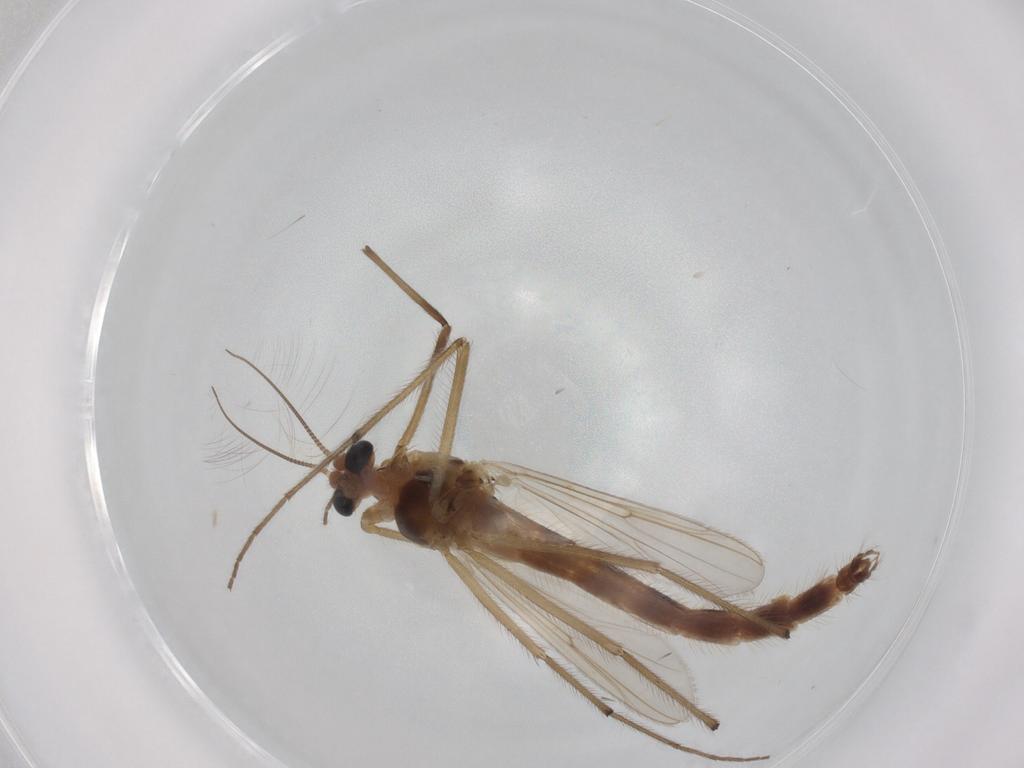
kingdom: Animalia
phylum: Arthropoda
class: Insecta
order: Diptera
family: Chironomidae
